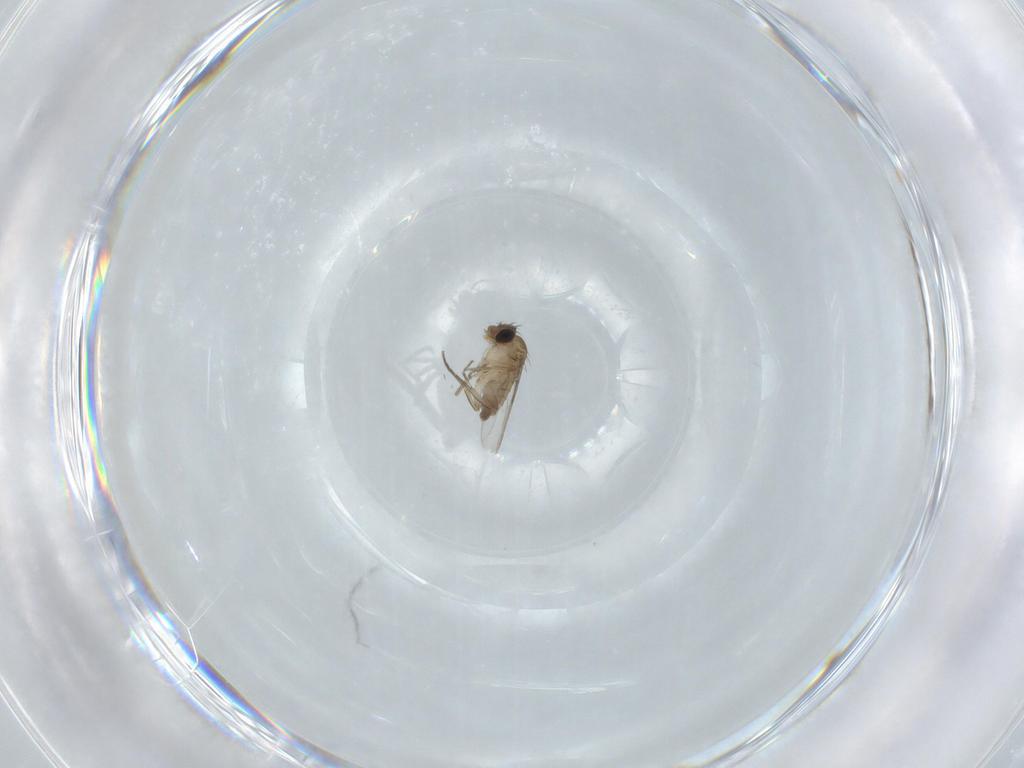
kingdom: Animalia
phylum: Arthropoda
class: Insecta
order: Diptera
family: Phoridae
